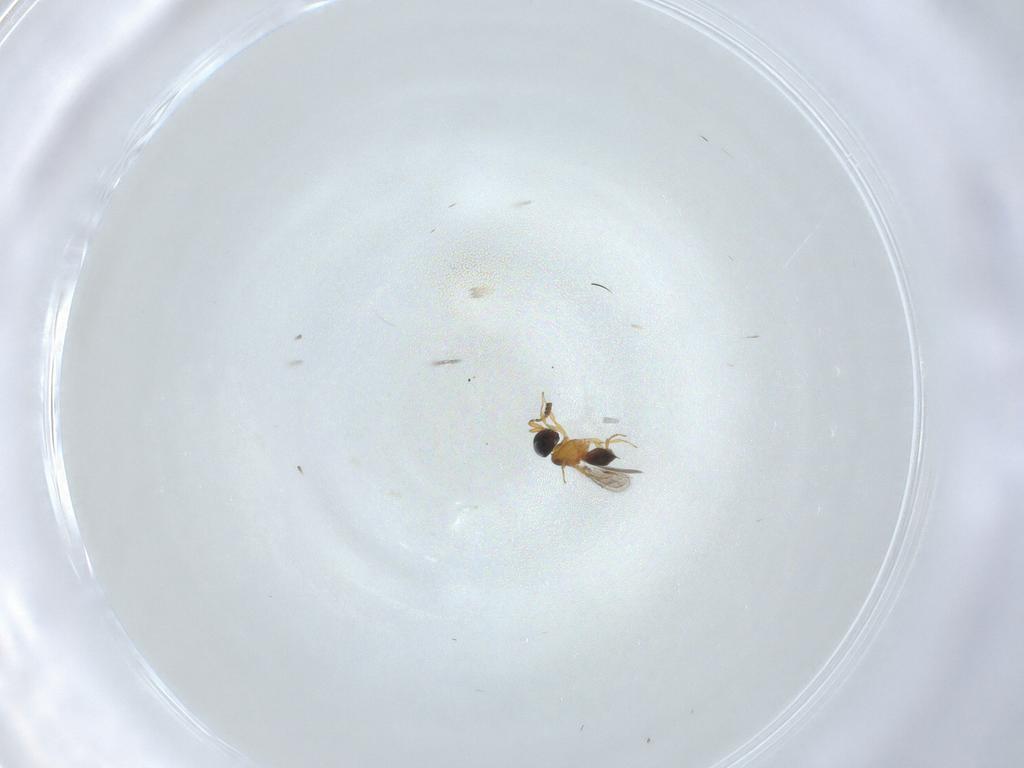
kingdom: Animalia
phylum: Arthropoda
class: Insecta
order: Hymenoptera
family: Scelionidae
